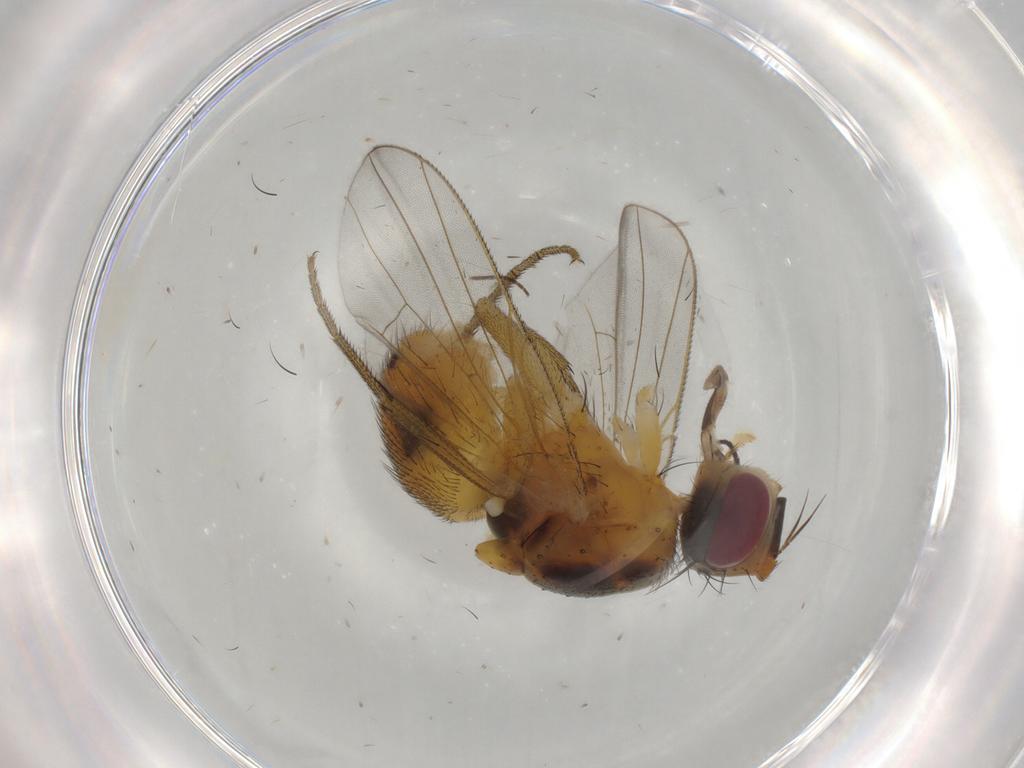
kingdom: Animalia
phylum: Arthropoda
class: Insecta
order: Diptera
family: Muscidae
